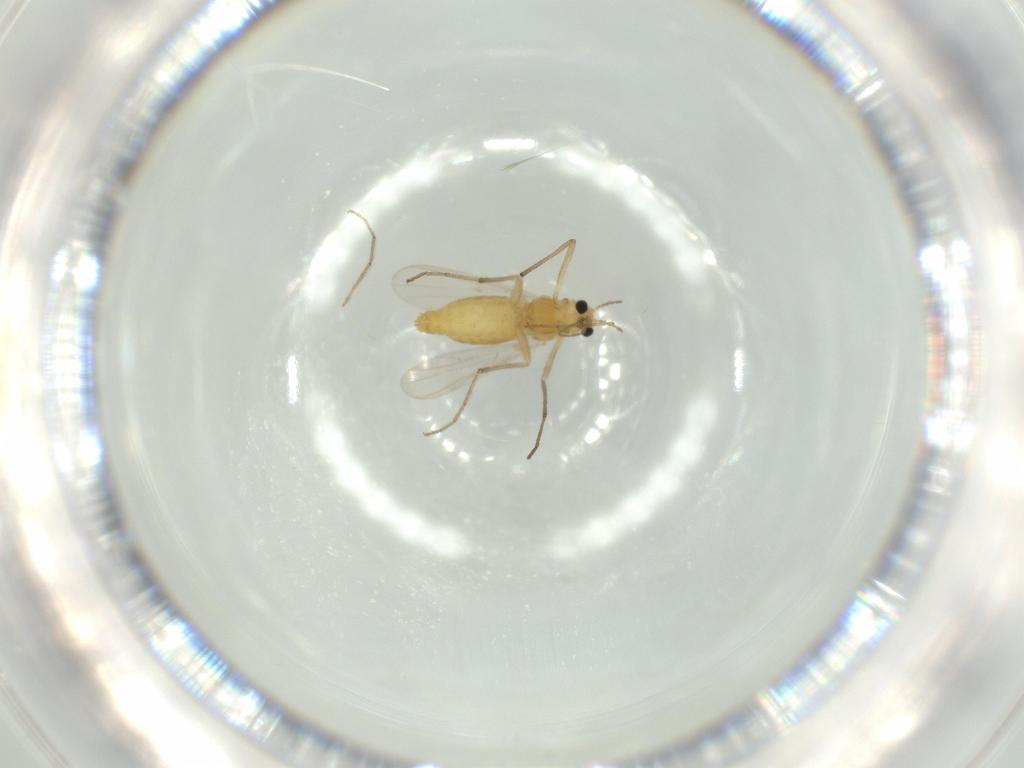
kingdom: Animalia
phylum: Arthropoda
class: Insecta
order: Diptera
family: Chironomidae
